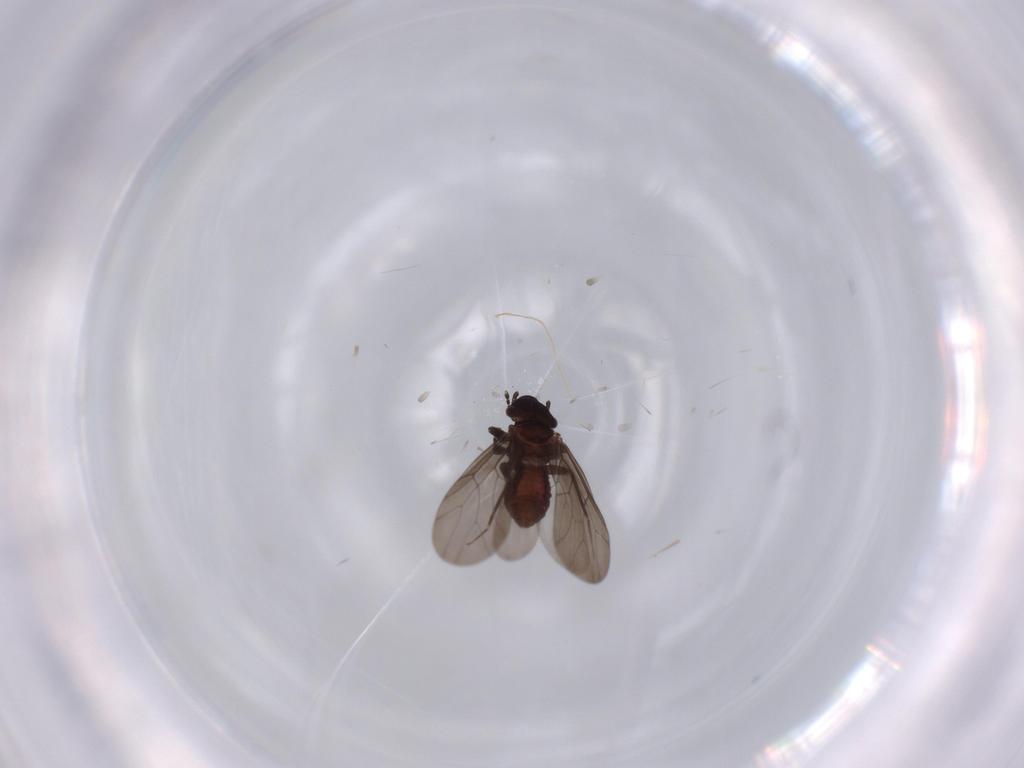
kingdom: Animalia
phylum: Arthropoda
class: Insecta
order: Psocodea
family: Lepidopsocidae
